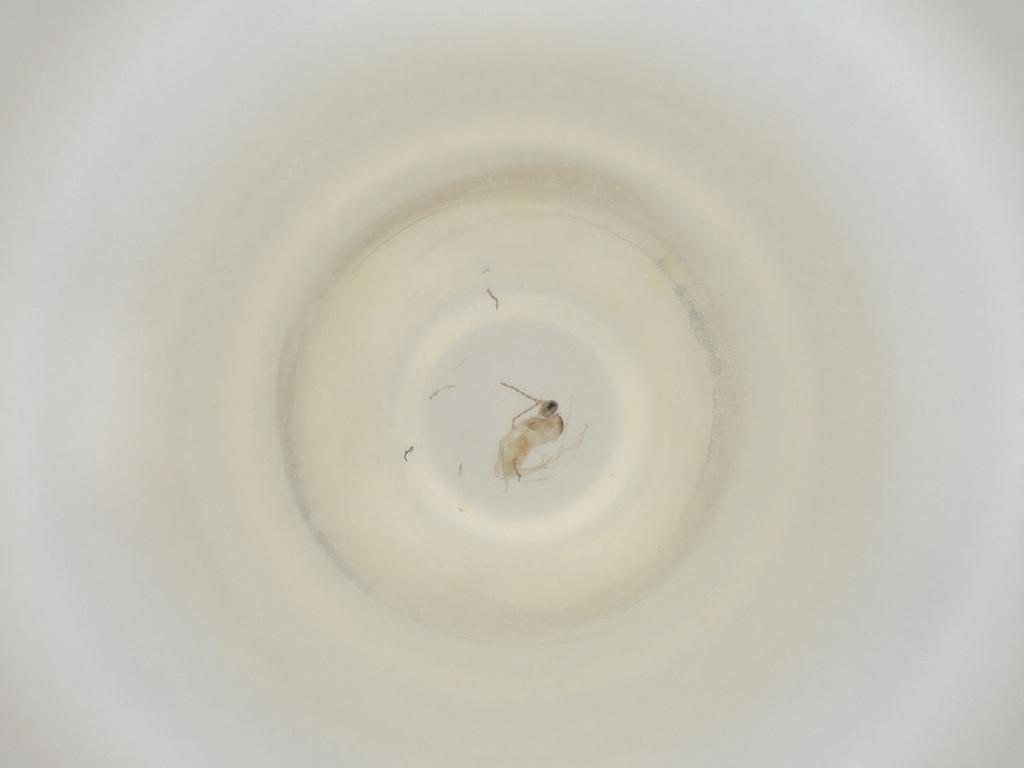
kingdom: Animalia
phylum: Arthropoda
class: Insecta
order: Diptera
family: Cecidomyiidae
